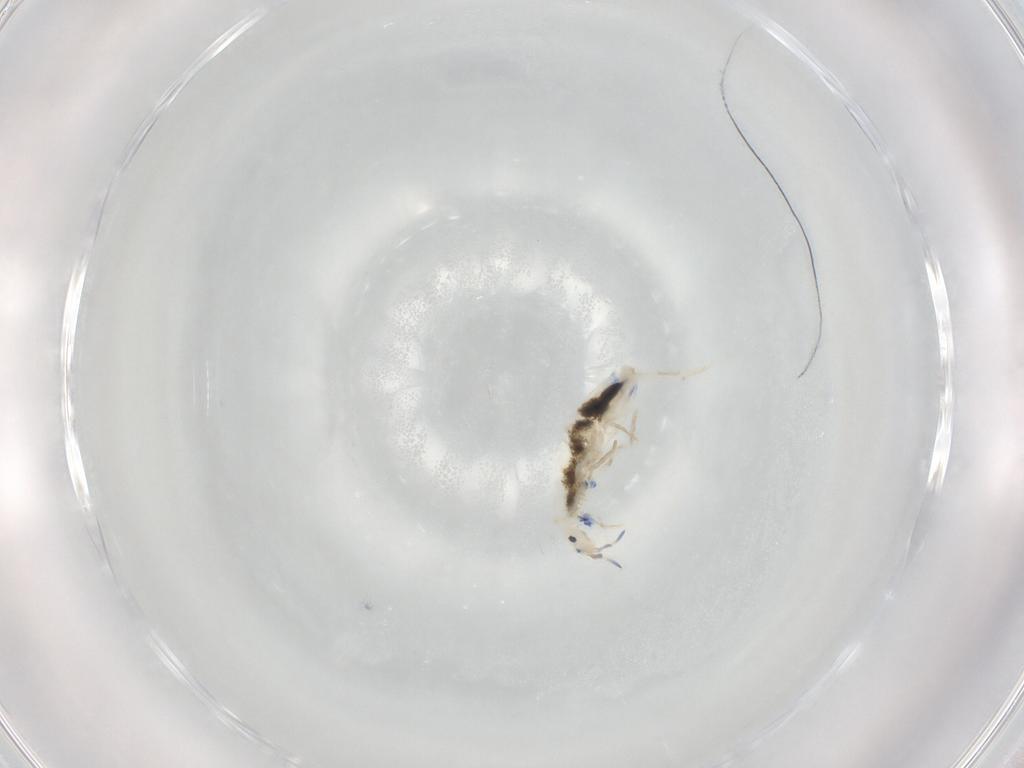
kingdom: Animalia
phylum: Arthropoda
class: Collembola
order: Entomobryomorpha
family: Entomobryidae
